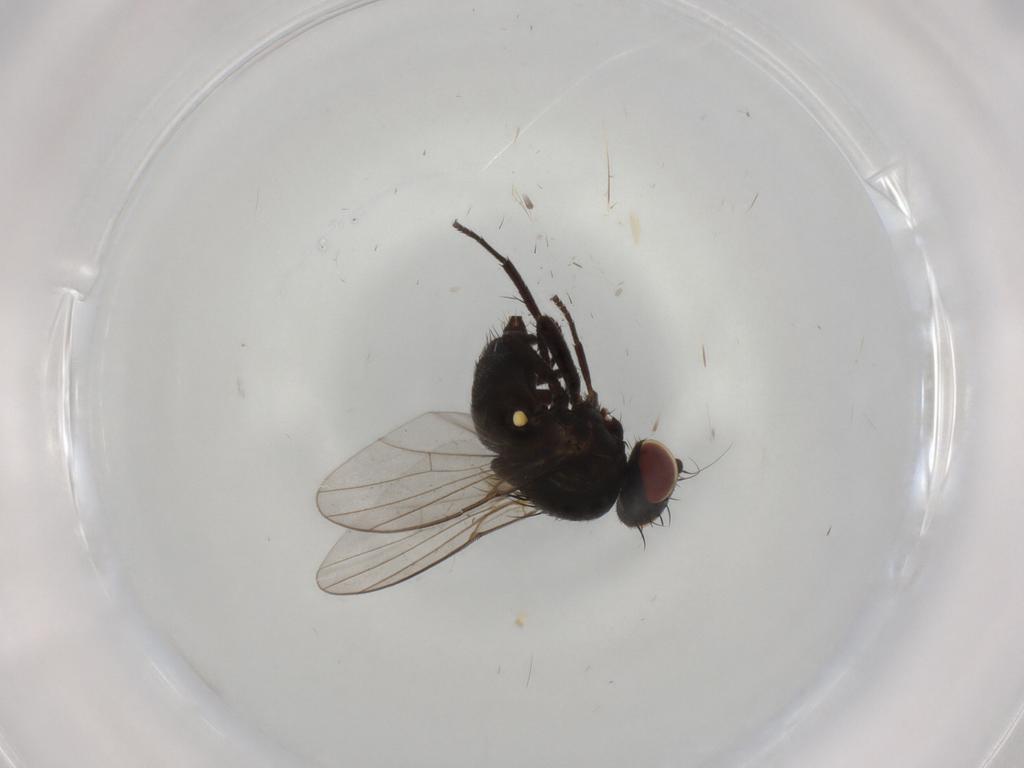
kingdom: Animalia
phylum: Arthropoda
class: Insecta
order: Diptera
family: Agromyzidae
